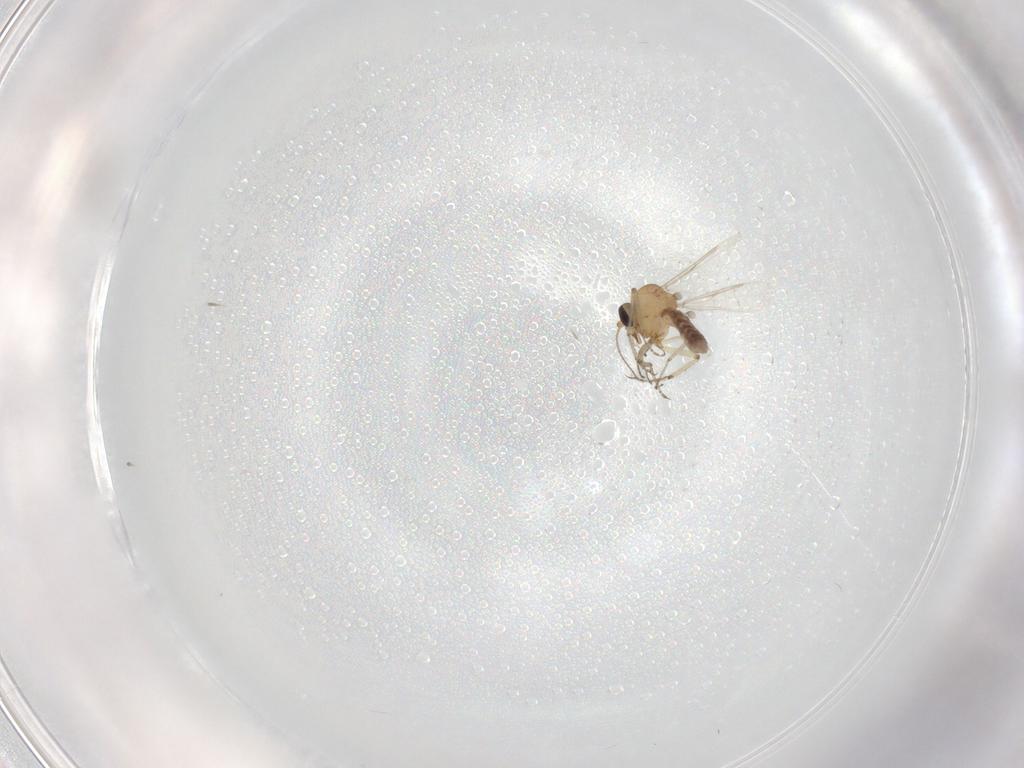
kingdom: Animalia
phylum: Arthropoda
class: Insecta
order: Diptera
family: Ceratopogonidae
